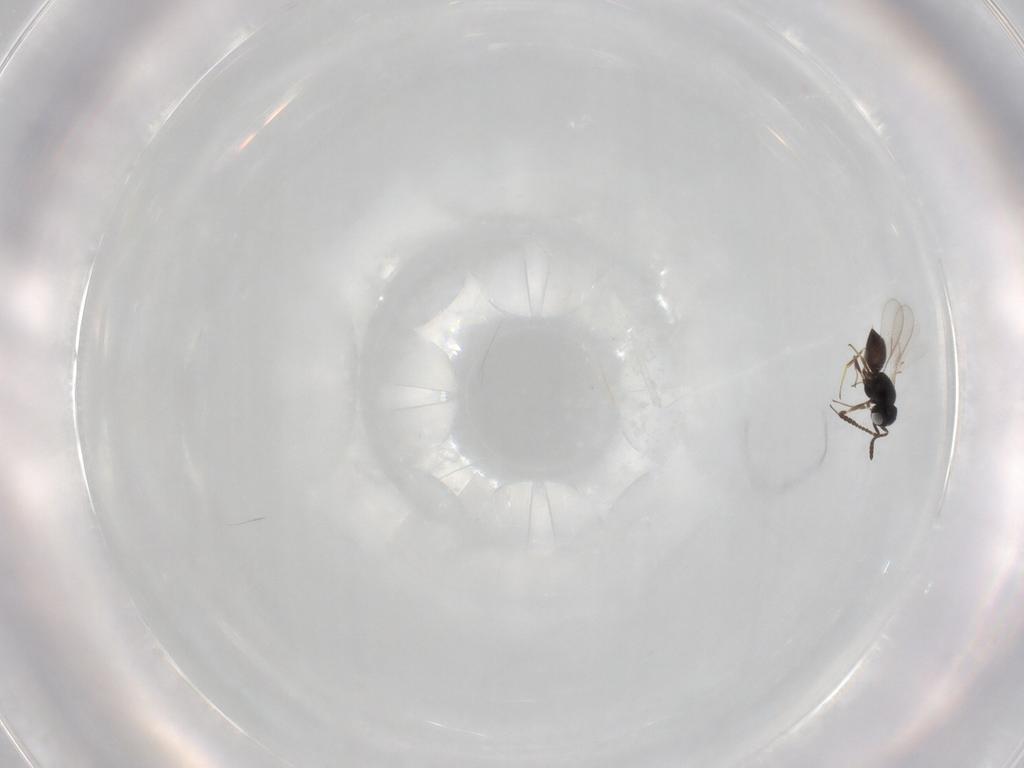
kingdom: Animalia
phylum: Arthropoda
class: Insecta
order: Hymenoptera
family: Scelionidae
